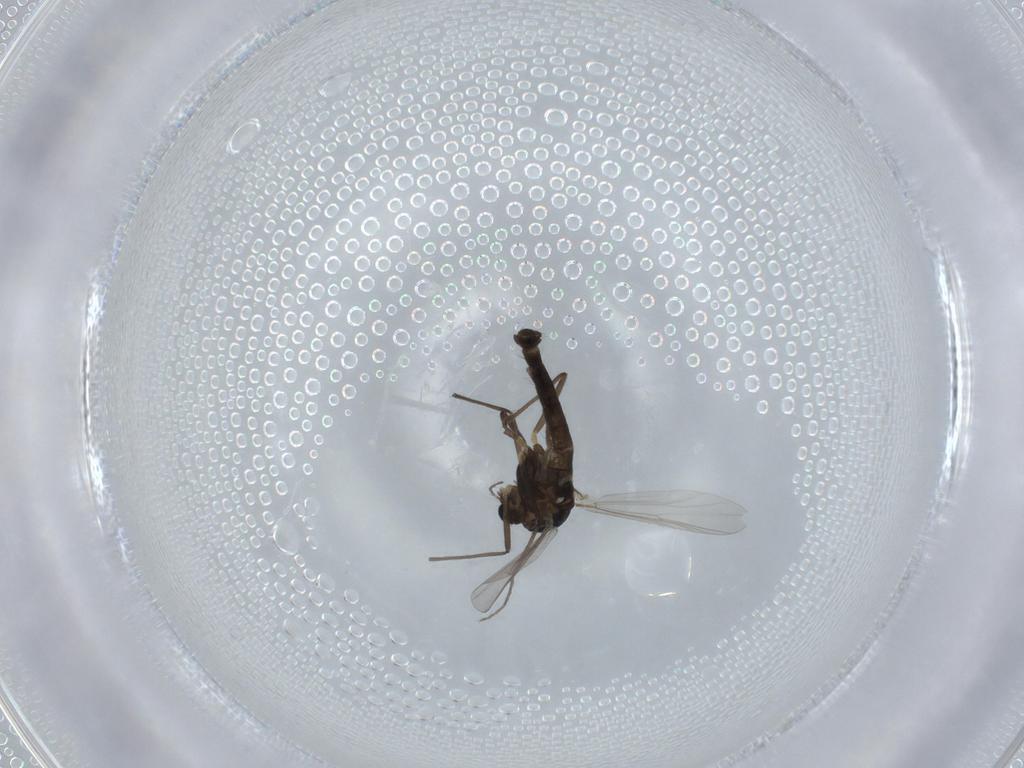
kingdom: Animalia
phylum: Arthropoda
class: Insecta
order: Diptera
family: Chironomidae
